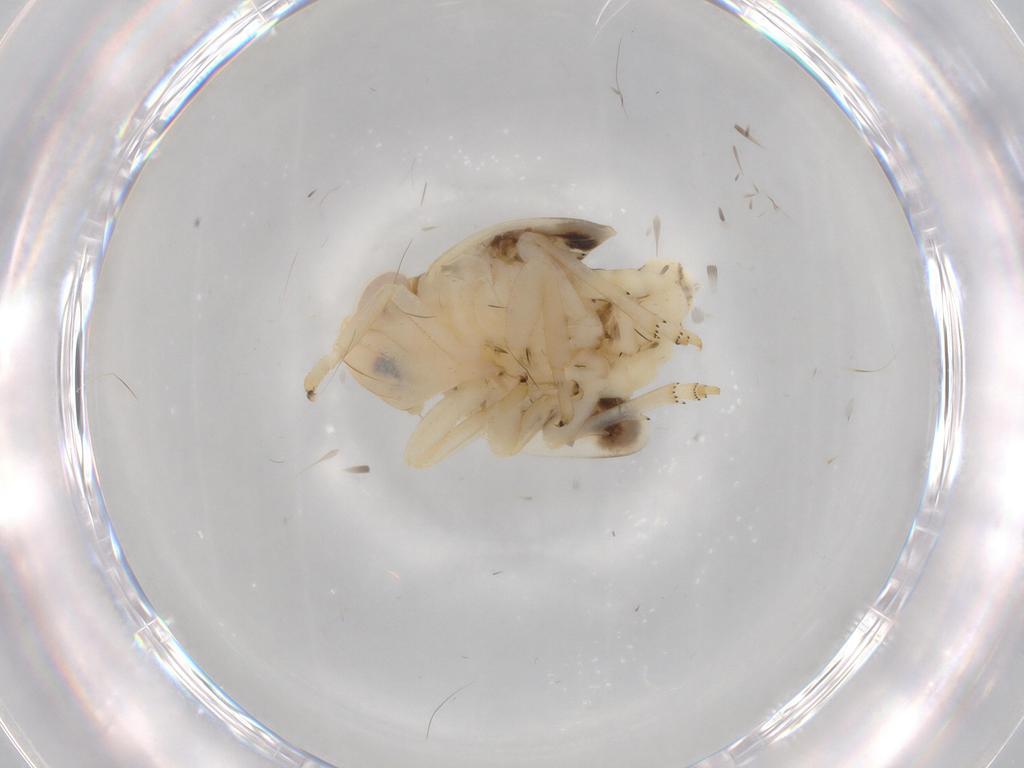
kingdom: Animalia
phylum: Arthropoda
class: Insecta
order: Hemiptera
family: Nogodinidae
